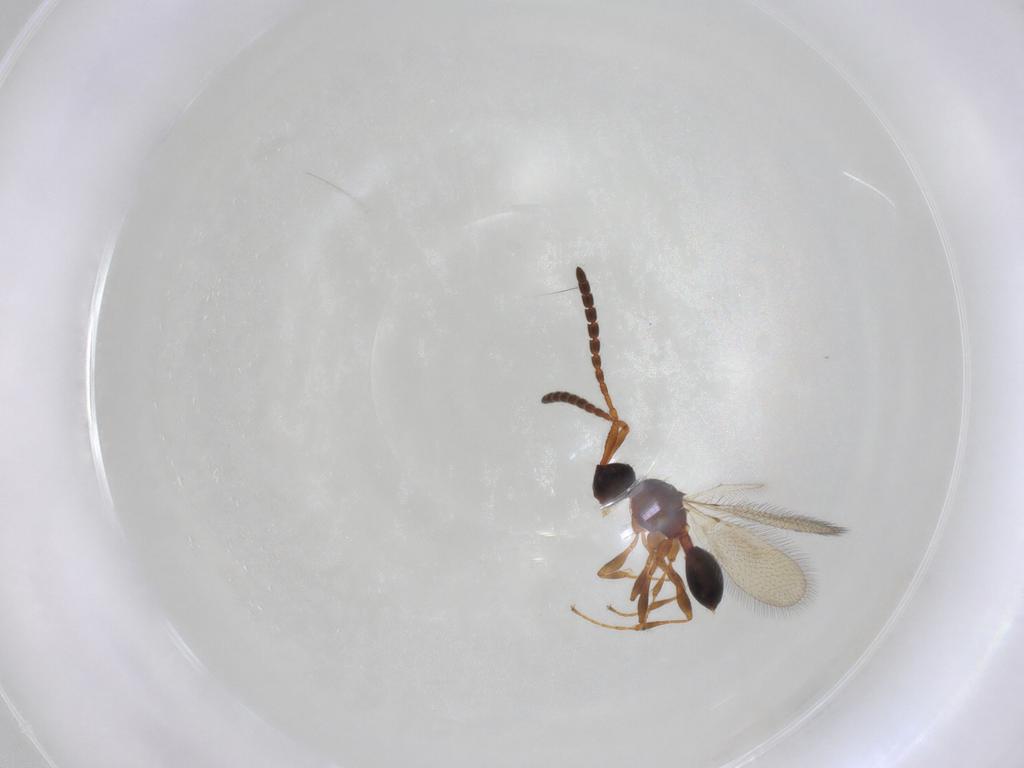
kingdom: Animalia
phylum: Arthropoda
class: Insecta
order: Hymenoptera
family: Diapriidae
